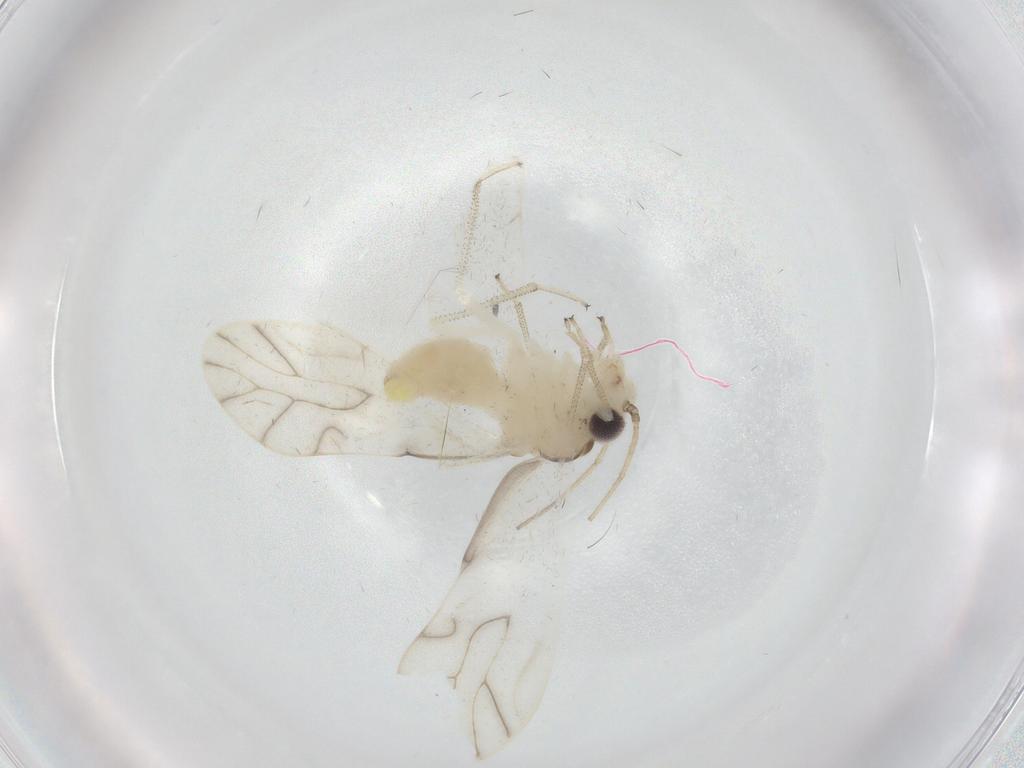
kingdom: Animalia
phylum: Arthropoda
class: Insecta
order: Psocodea
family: Caeciliusidae
